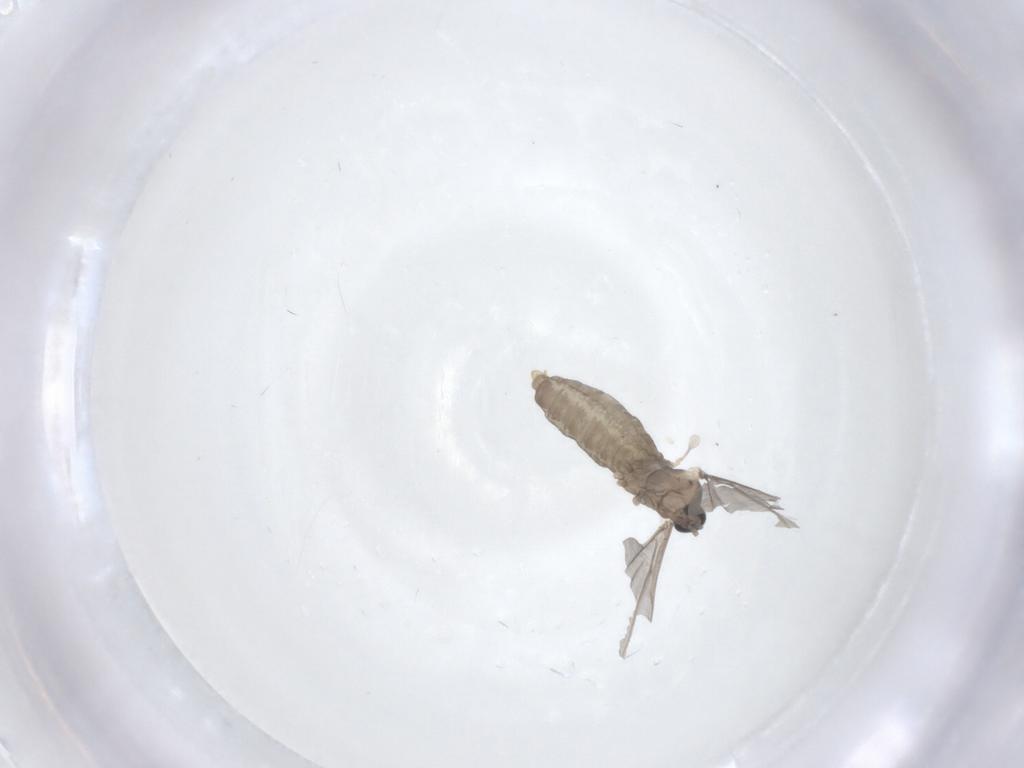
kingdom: Animalia
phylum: Arthropoda
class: Insecta
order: Diptera
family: Cecidomyiidae
